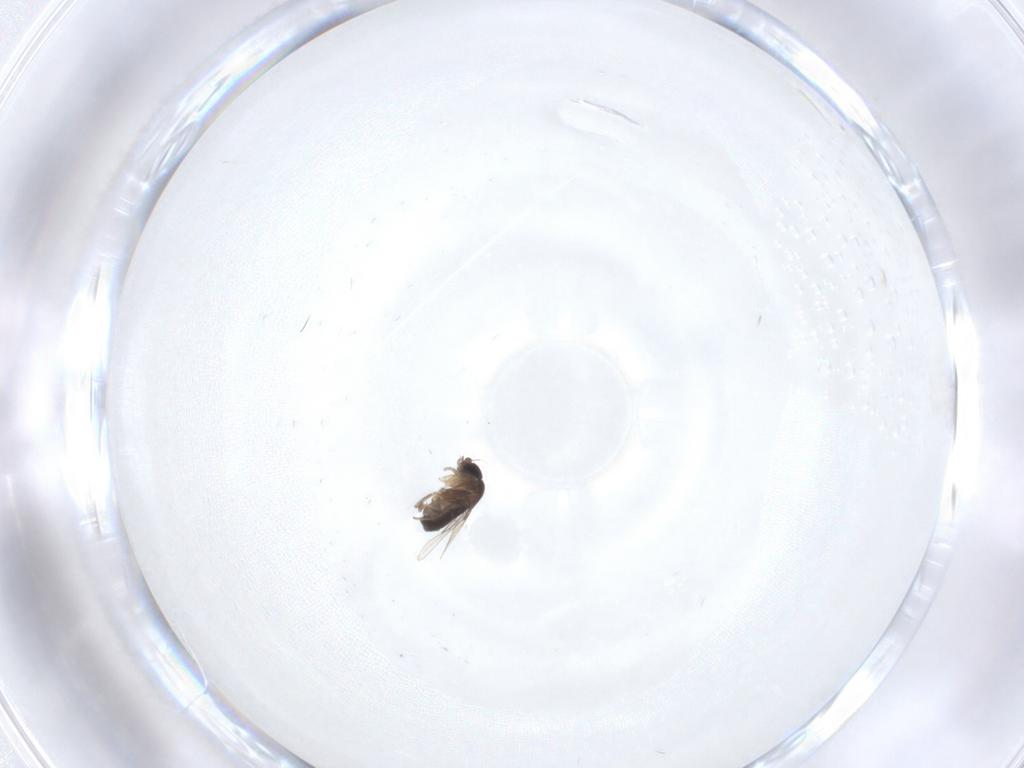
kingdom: Animalia
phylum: Arthropoda
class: Insecta
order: Diptera
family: Phoridae
